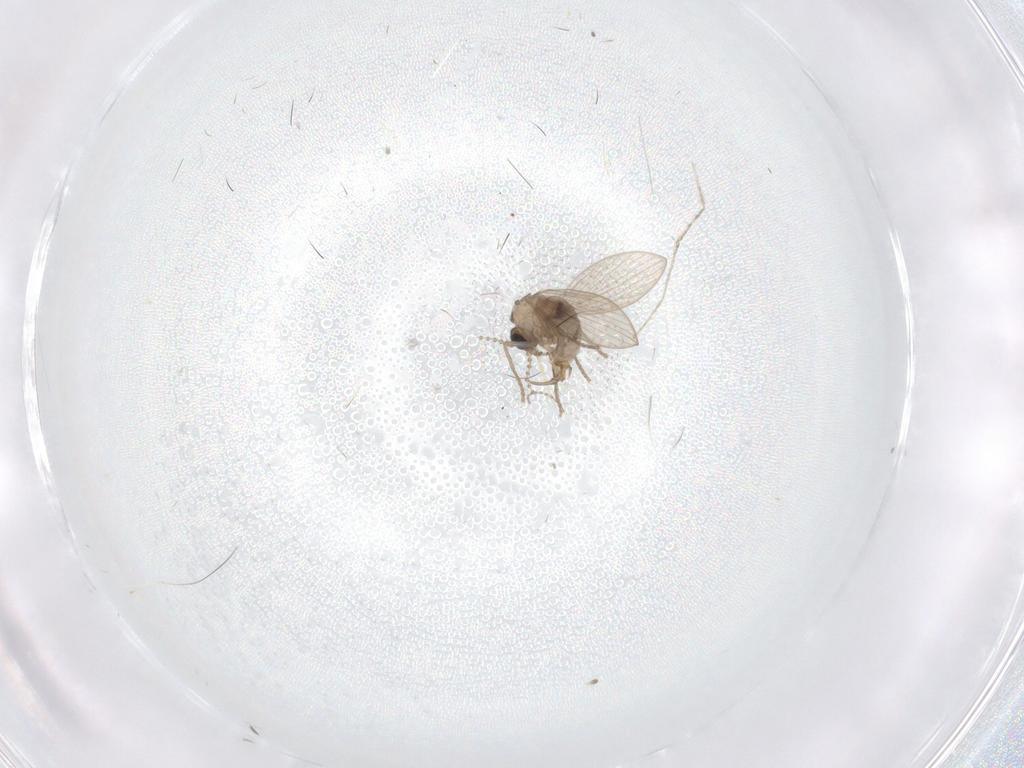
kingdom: Animalia
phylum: Arthropoda
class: Insecta
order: Diptera
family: Psychodidae
